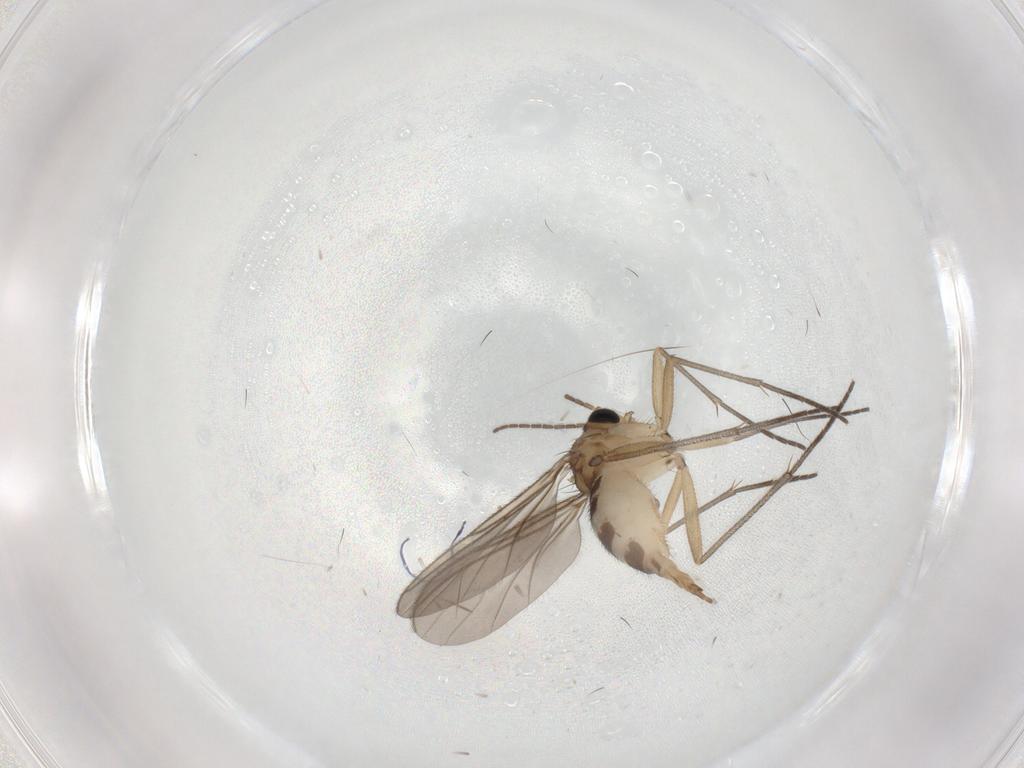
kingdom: Animalia
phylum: Arthropoda
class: Insecta
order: Diptera
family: Sciaridae
